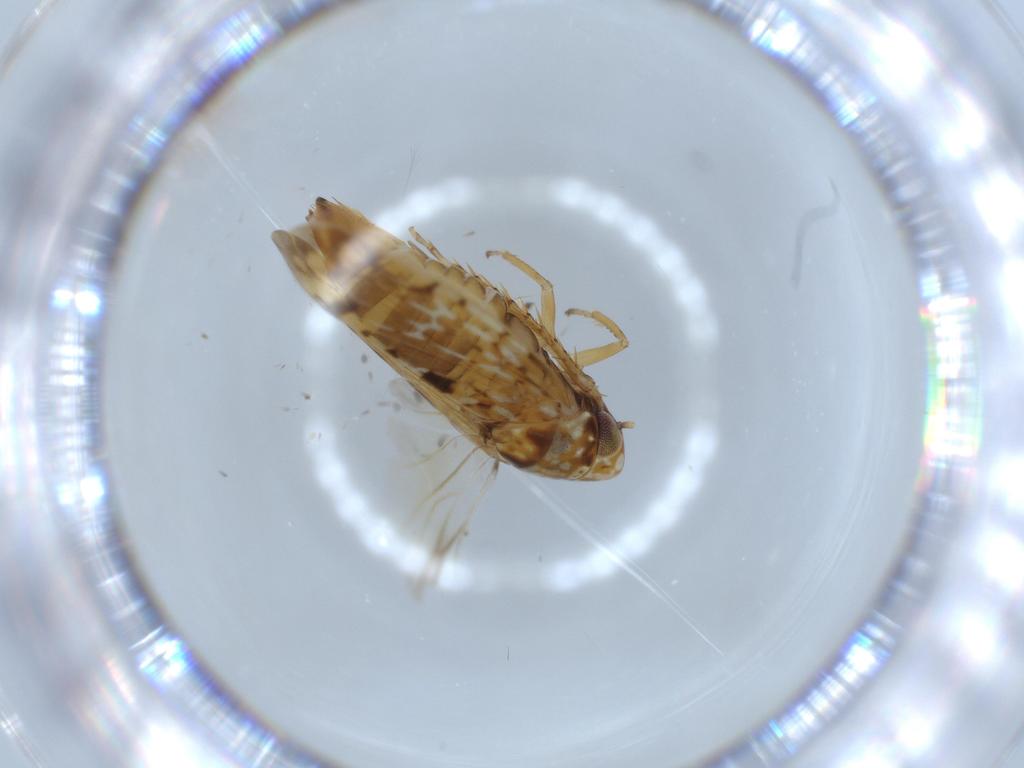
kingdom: Animalia
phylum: Arthropoda
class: Insecta
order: Hemiptera
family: Cicadellidae
